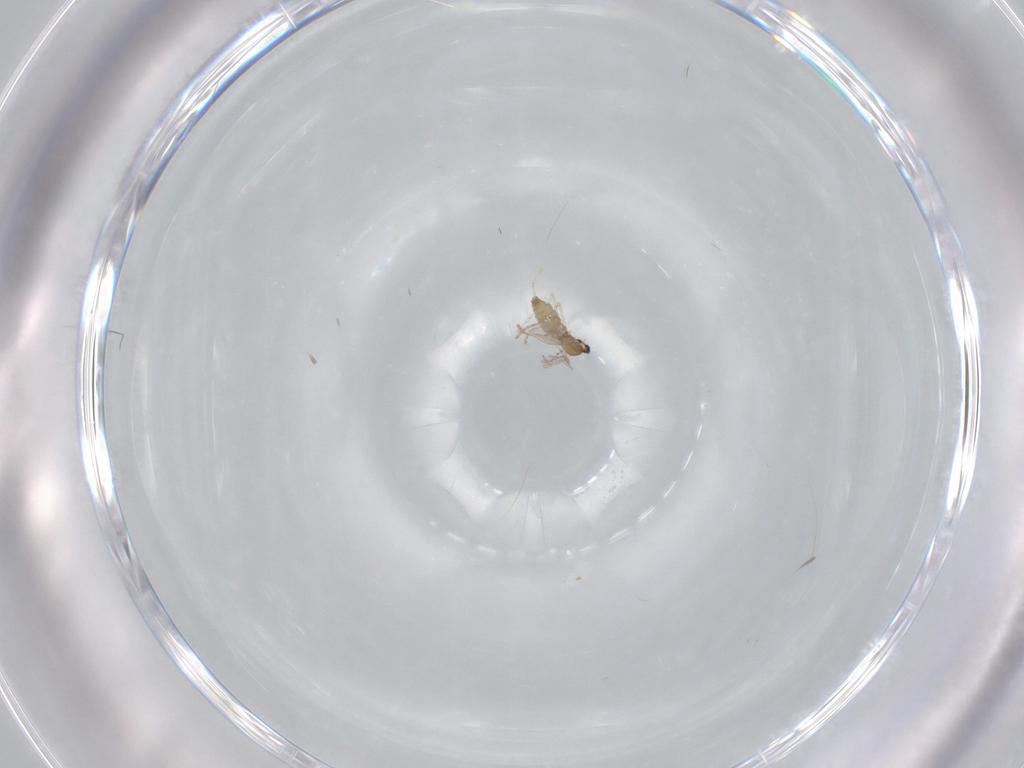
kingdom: Animalia
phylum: Arthropoda
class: Insecta
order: Diptera
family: Cecidomyiidae
